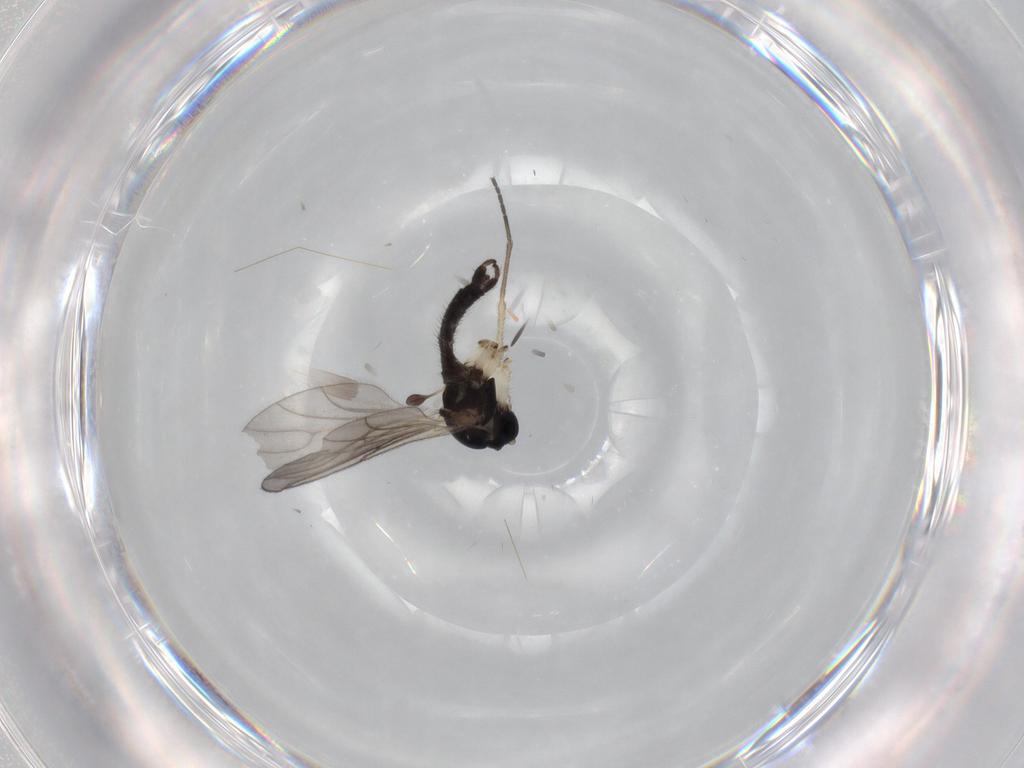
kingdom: Animalia
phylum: Arthropoda
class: Insecta
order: Diptera
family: Sciaridae
